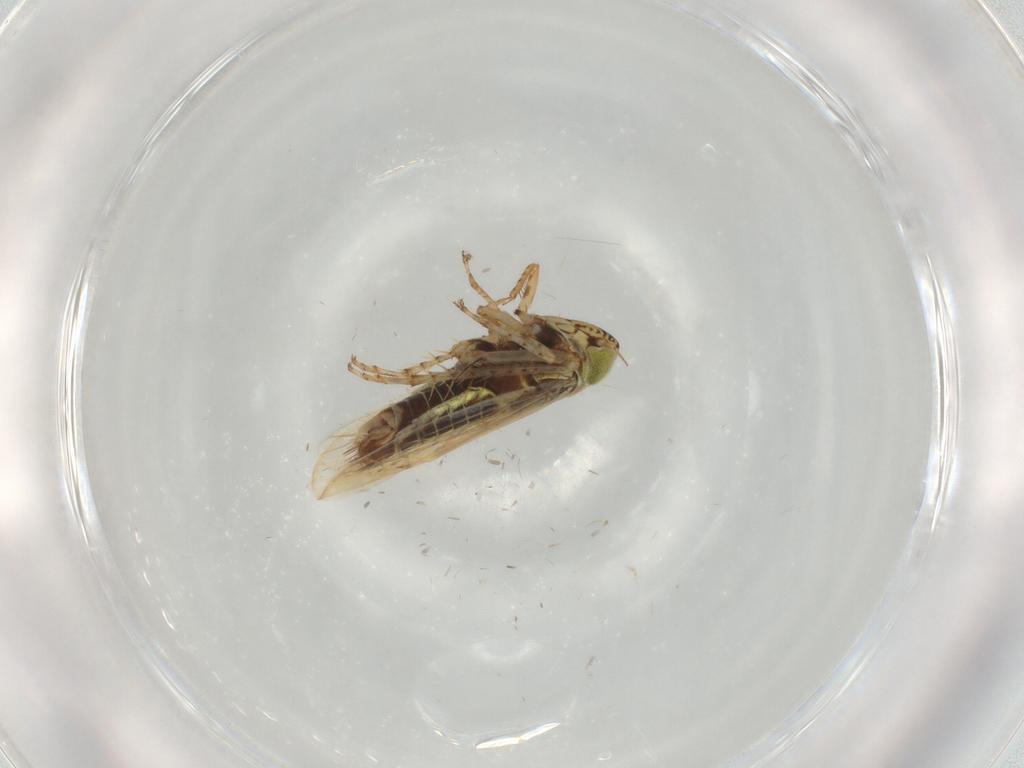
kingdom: Animalia
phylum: Arthropoda
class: Insecta
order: Hemiptera
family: Cicadellidae
